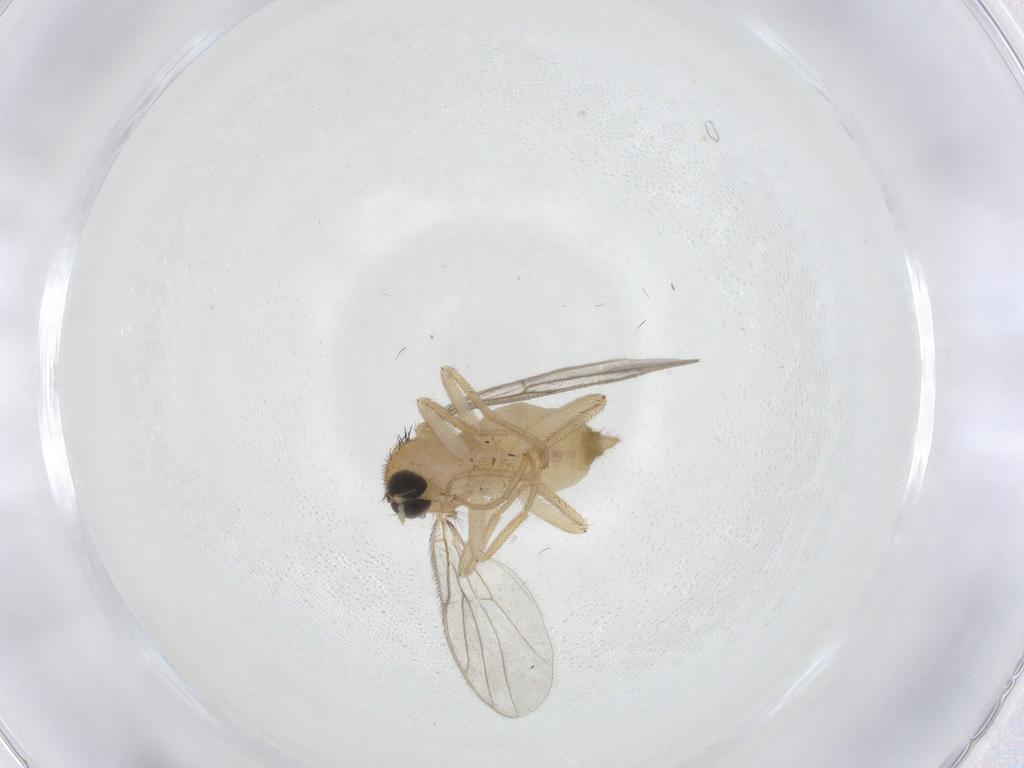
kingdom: Animalia
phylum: Arthropoda
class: Insecta
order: Diptera
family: Hybotidae
